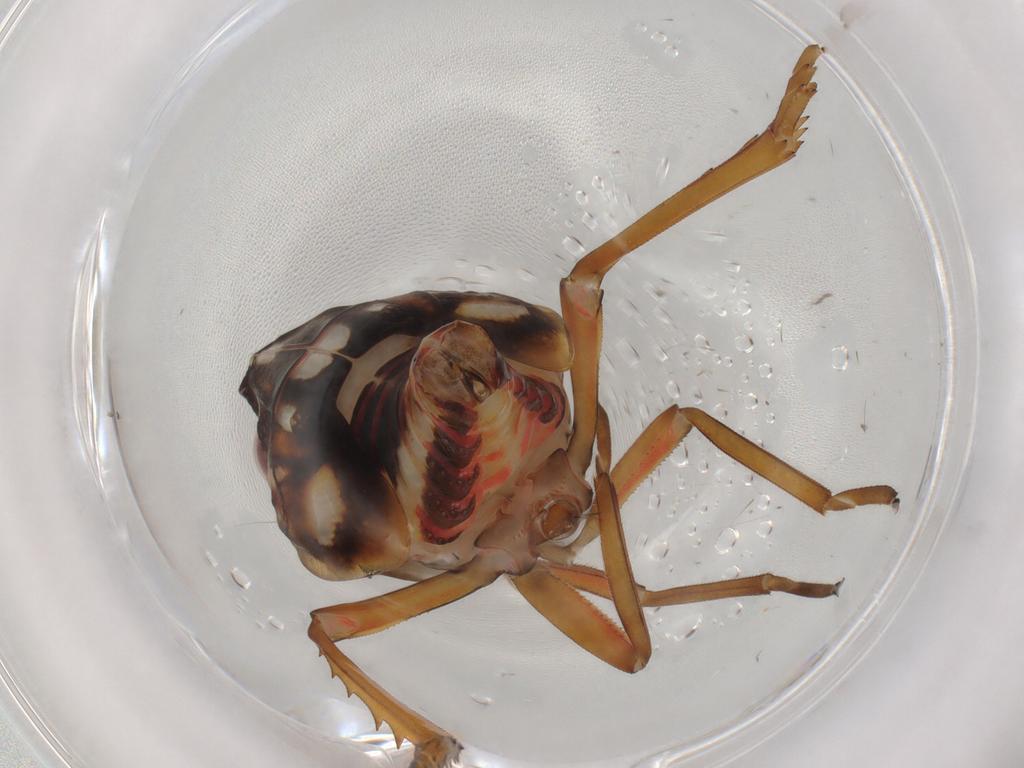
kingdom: Animalia
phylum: Arthropoda
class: Insecta
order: Hemiptera
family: Nogodinidae
